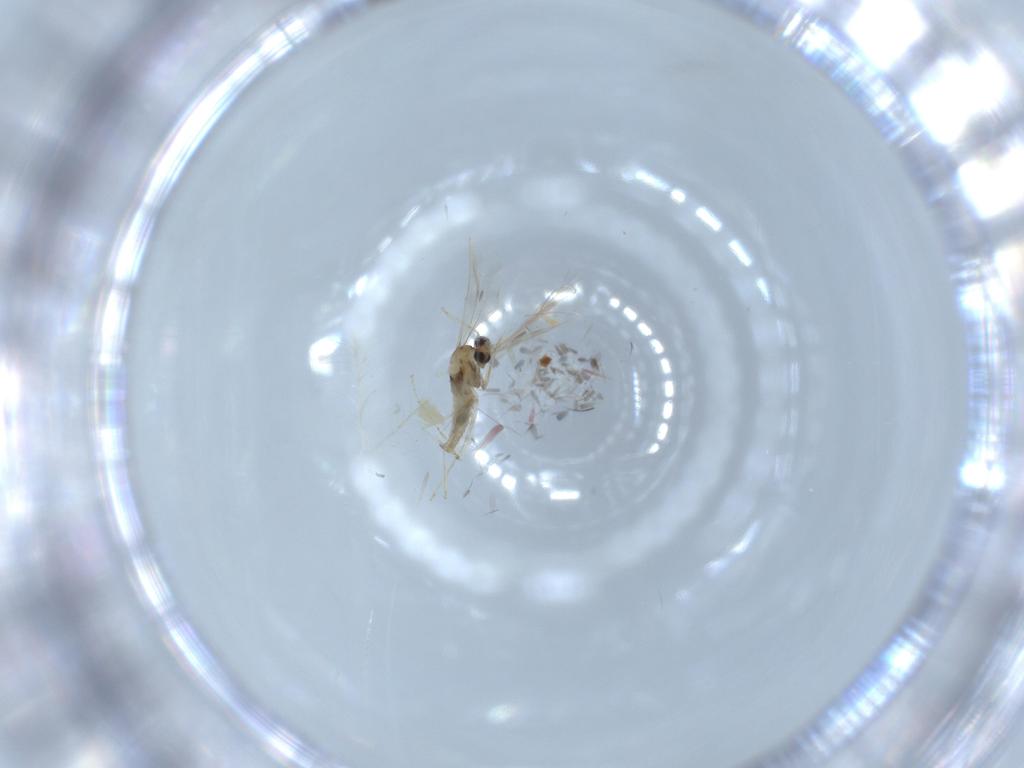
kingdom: Animalia
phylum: Arthropoda
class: Insecta
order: Diptera
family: Cecidomyiidae
